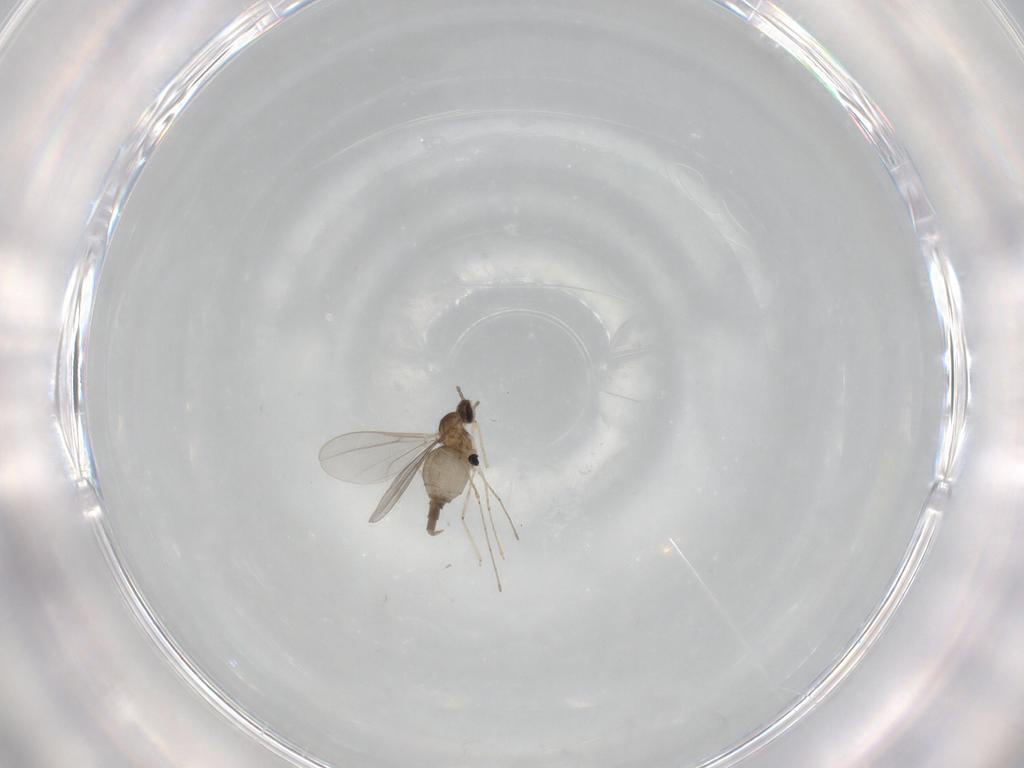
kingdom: Animalia
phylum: Arthropoda
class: Insecta
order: Diptera
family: Cecidomyiidae
